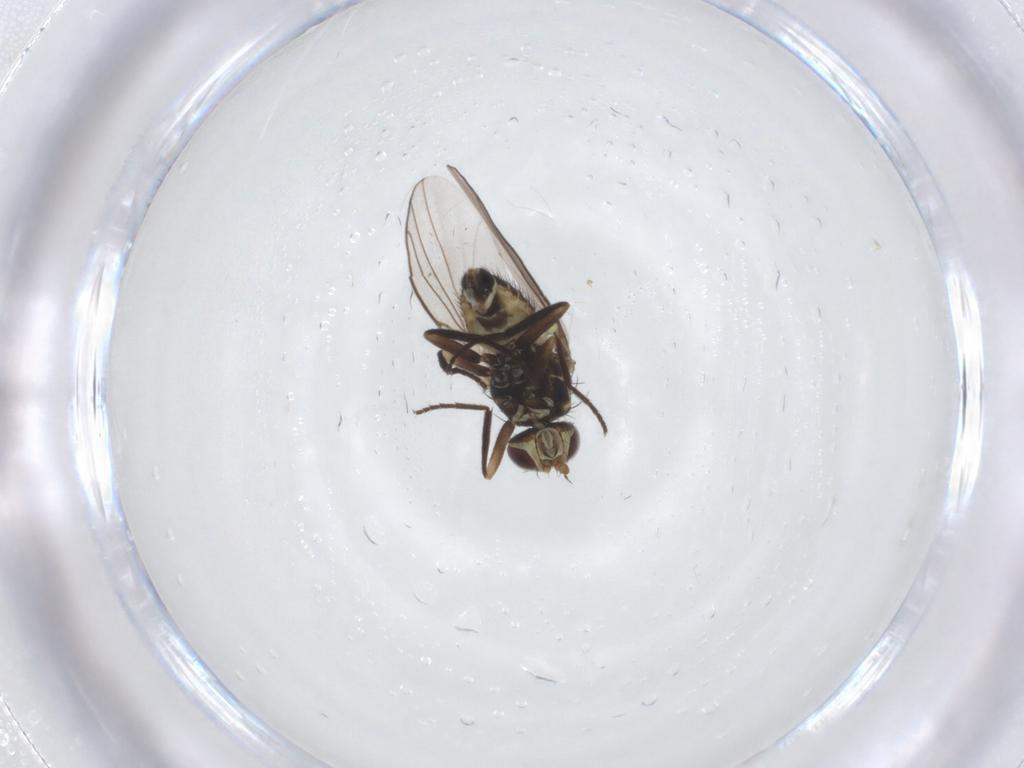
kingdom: Animalia
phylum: Arthropoda
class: Insecta
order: Diptera
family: Agromyzidae
